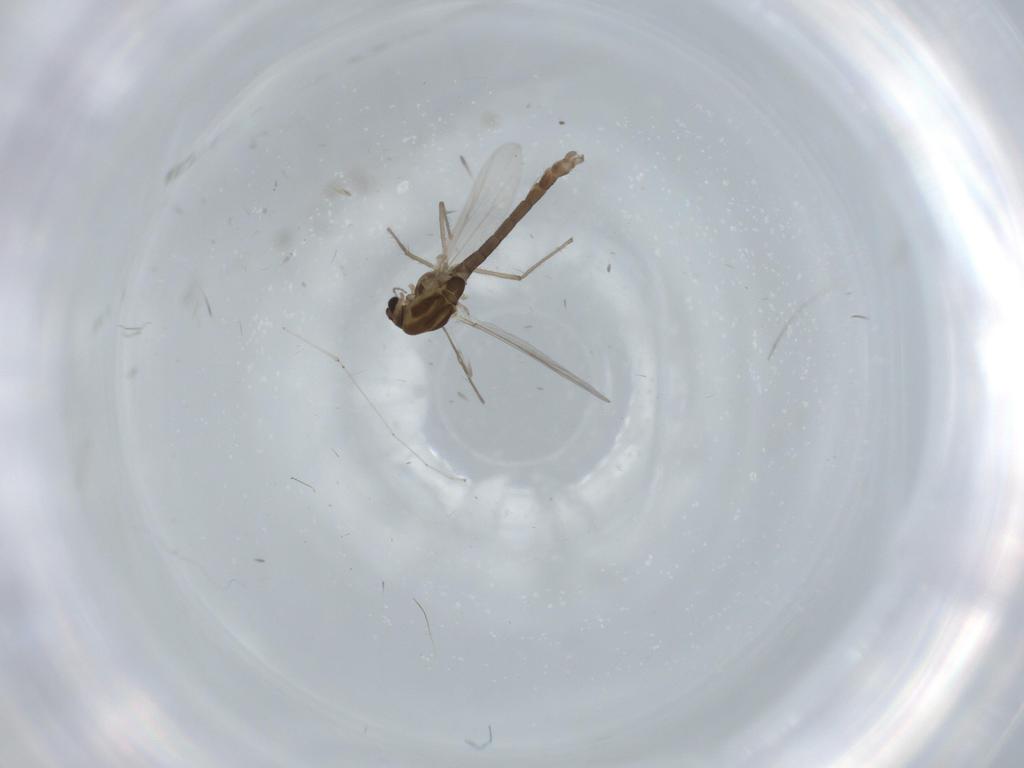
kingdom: Animalia
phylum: Arthropoda
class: Insecta
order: Diptera
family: Chironomidae
